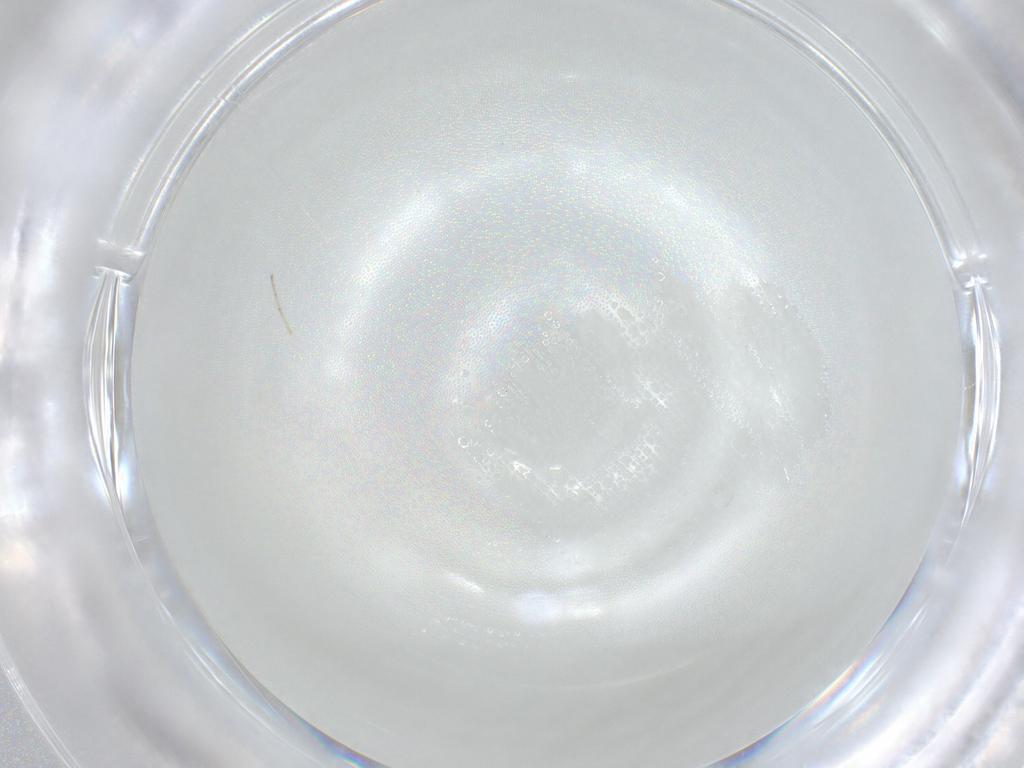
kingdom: Animalia
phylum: Arthropoda
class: Insecta
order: Diptera
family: Cecidomyiidae
